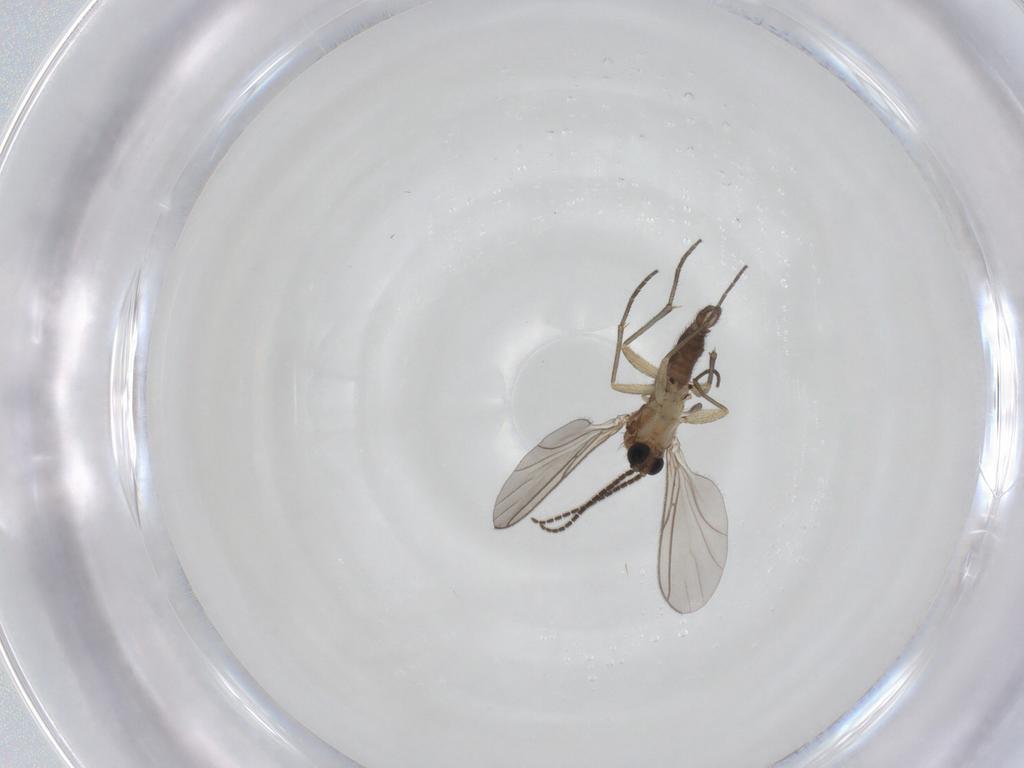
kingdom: Animalia
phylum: Arthropoda
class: Insecta
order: Diptera
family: Sciaridae
